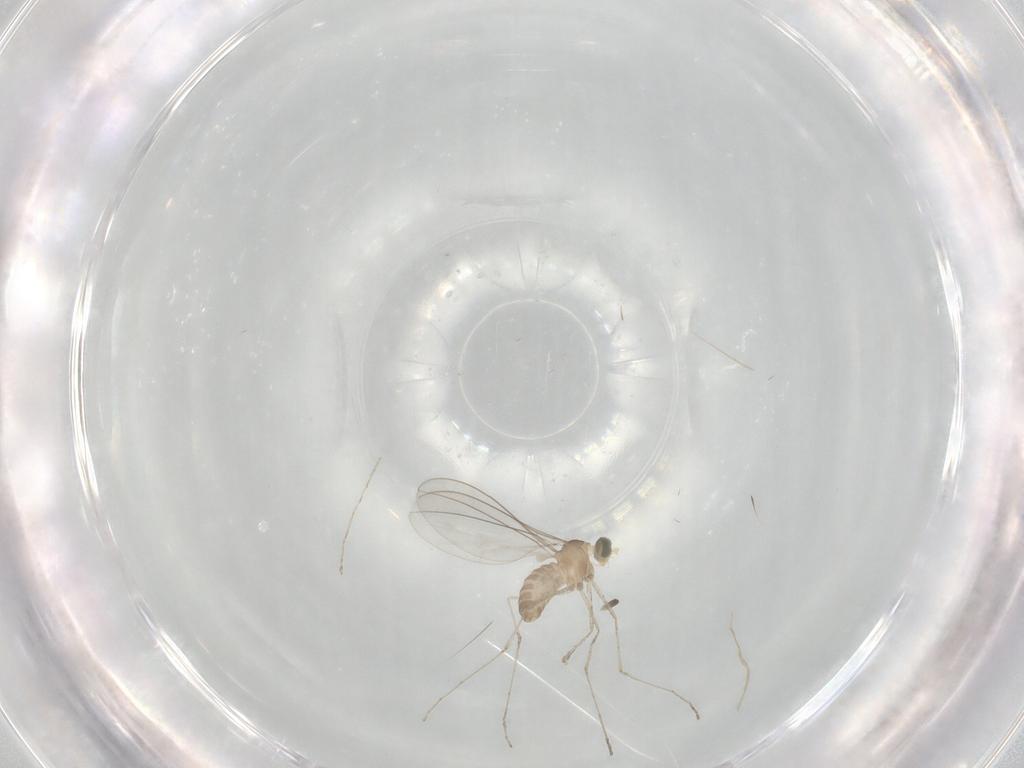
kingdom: Animalia
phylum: Arthropoda
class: Insecta
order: Diptera
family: Cecidomyiidae
